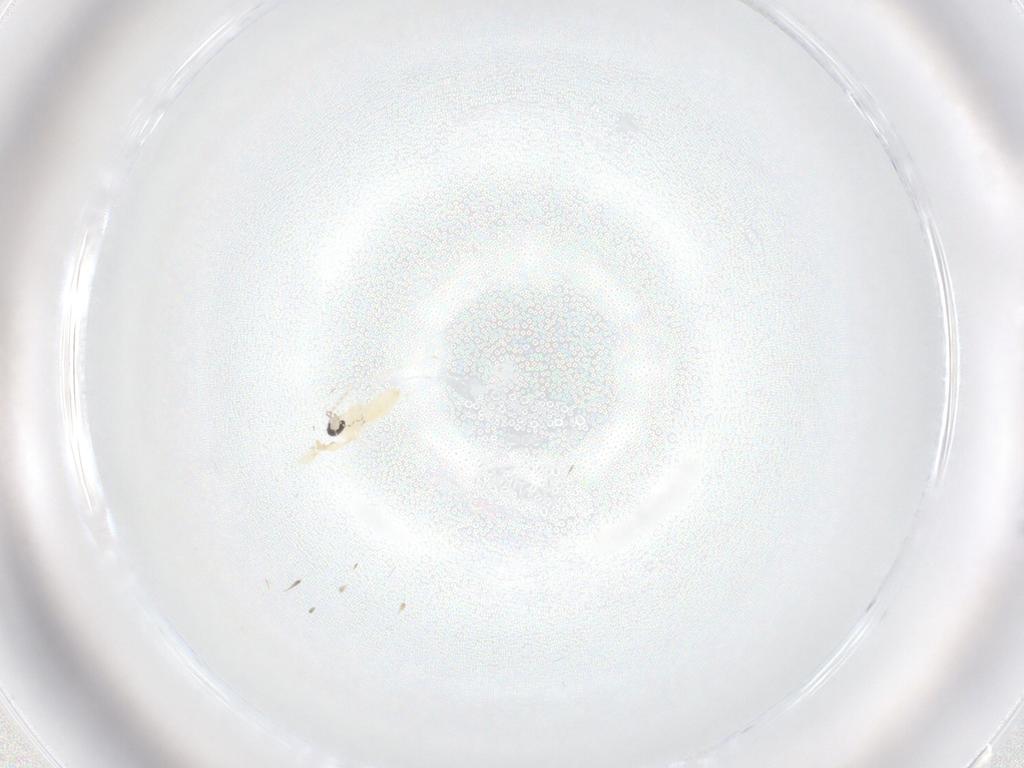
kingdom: Animalia
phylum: Arthropoda
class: Insecta
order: Diptera
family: Cecidomyiidae
